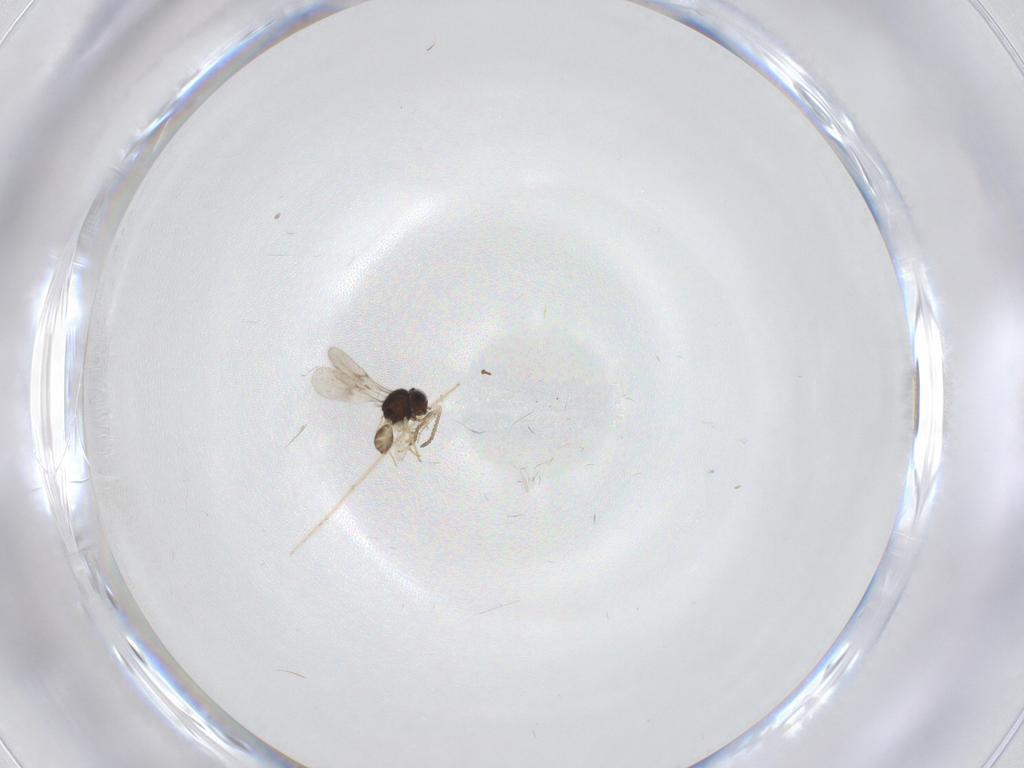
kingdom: Animalia
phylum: Arthropoda
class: Insecta
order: Hymenoptera
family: Scelionidae
